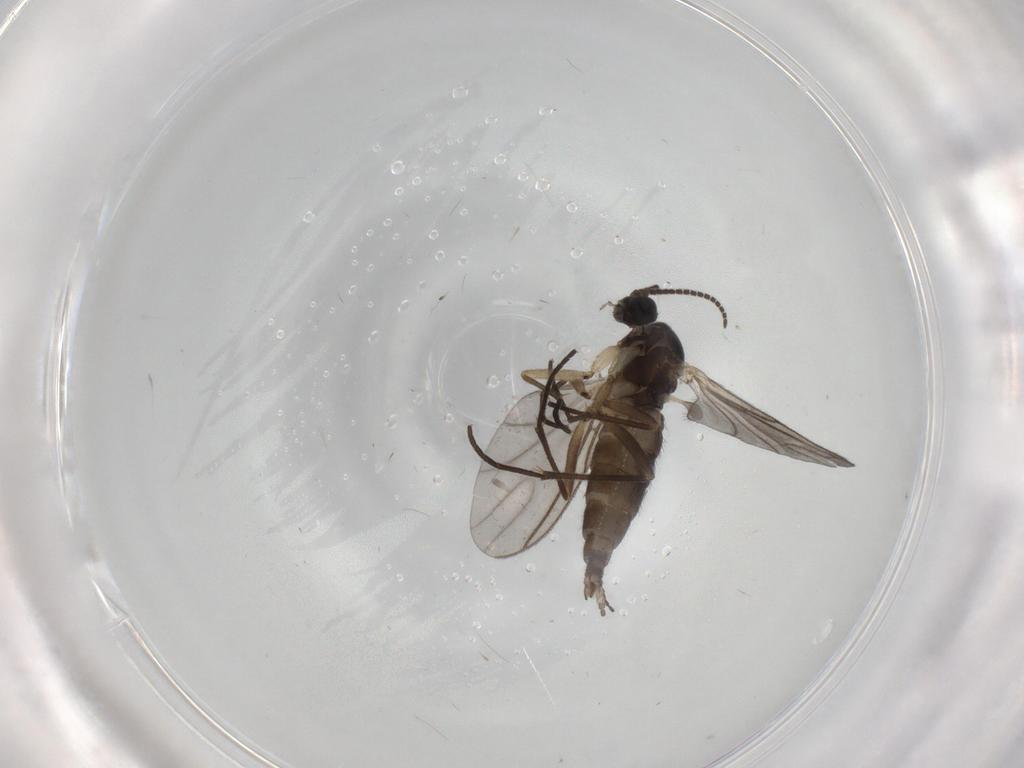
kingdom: Animalia
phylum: Arthropoda
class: Insecta
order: Diptera
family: Sciaridae
